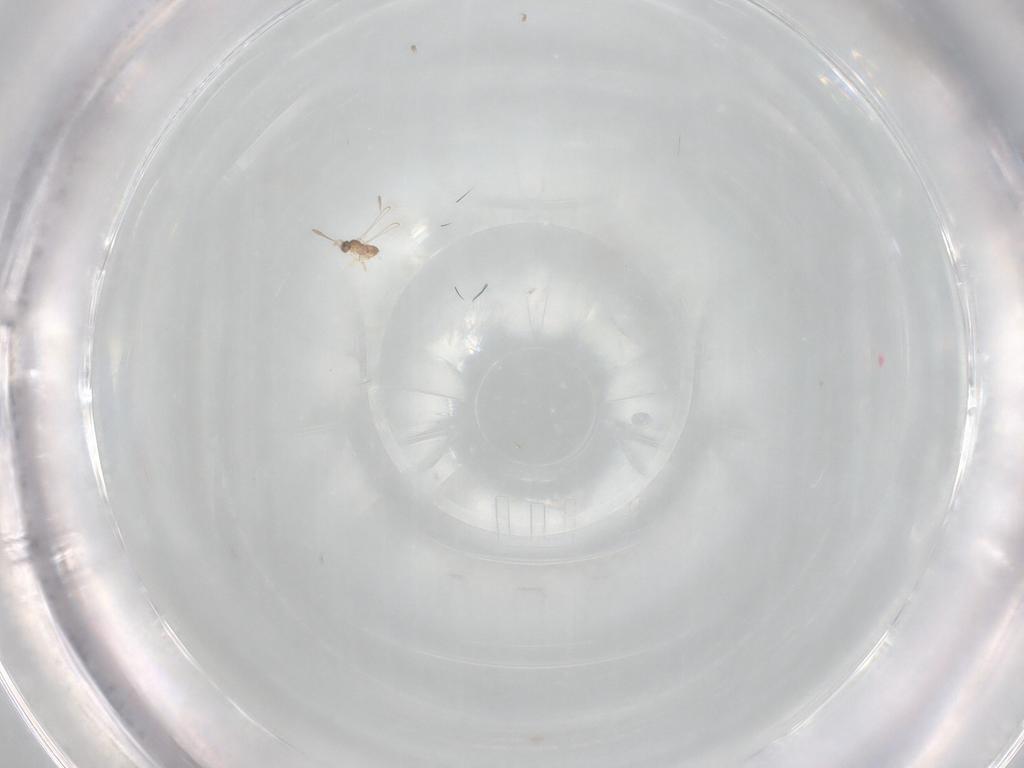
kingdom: Animalia
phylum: Arthropoda
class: Insecta
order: Hymenoptera
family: Mymaridae
